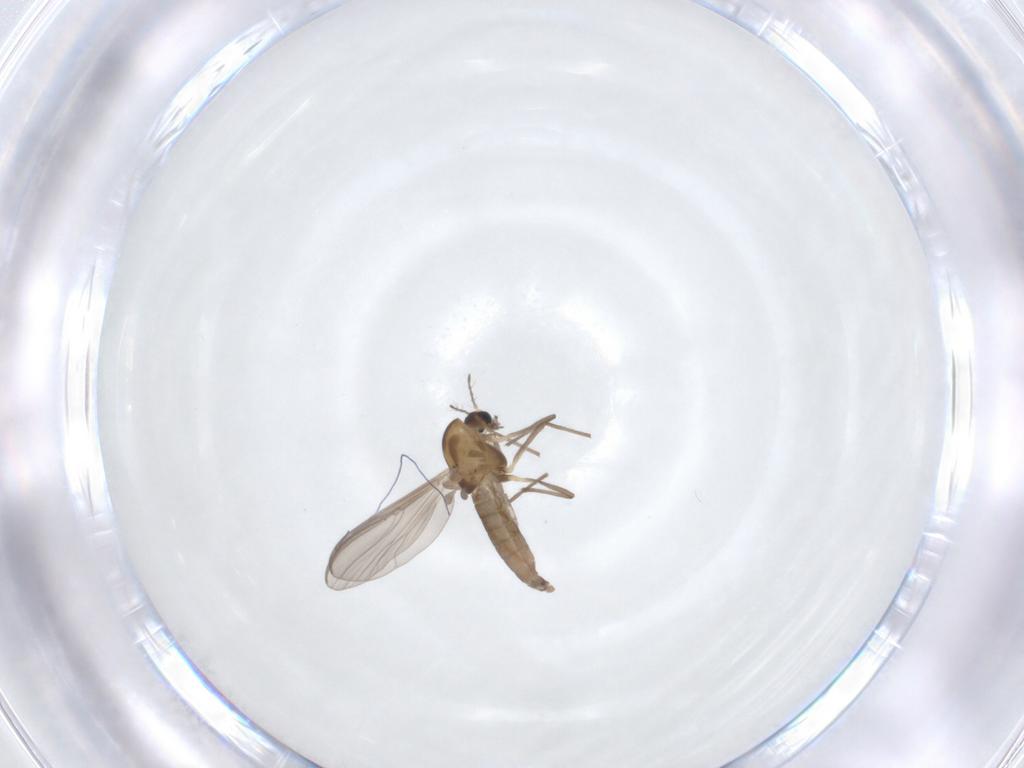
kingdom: Animalia
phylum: Arthropoda
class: Insecta
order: Diptera
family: Chironomidae
